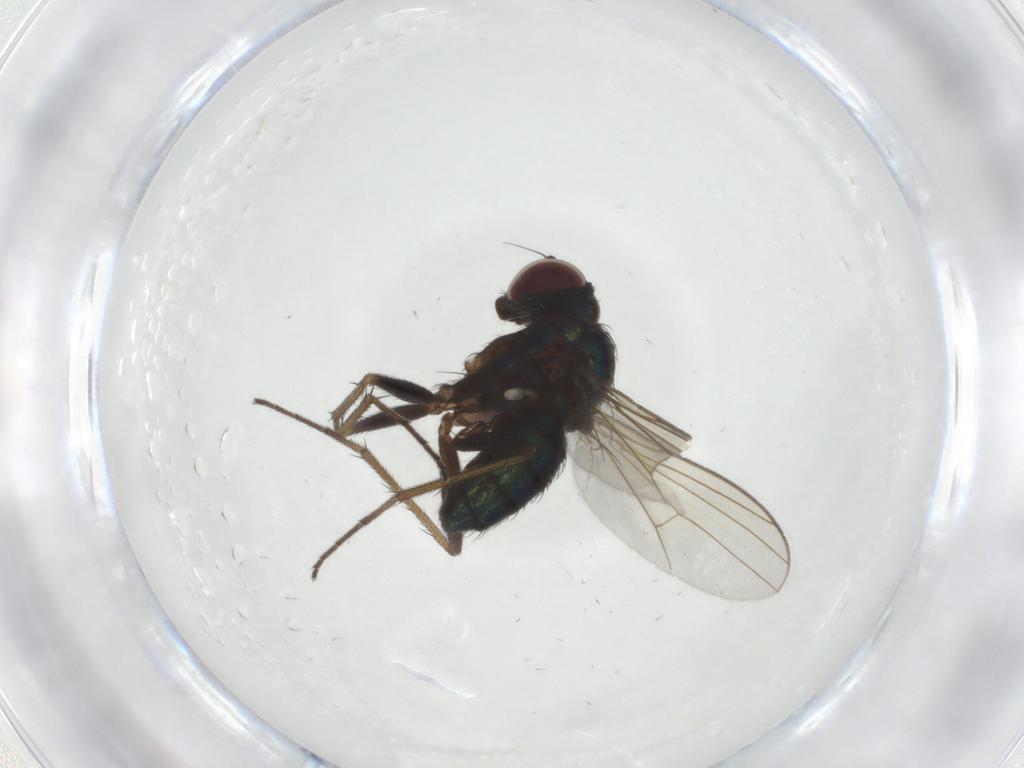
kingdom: Animalia
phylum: Arthropoda
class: Insecta
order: Diptera
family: Dolichopodidae
